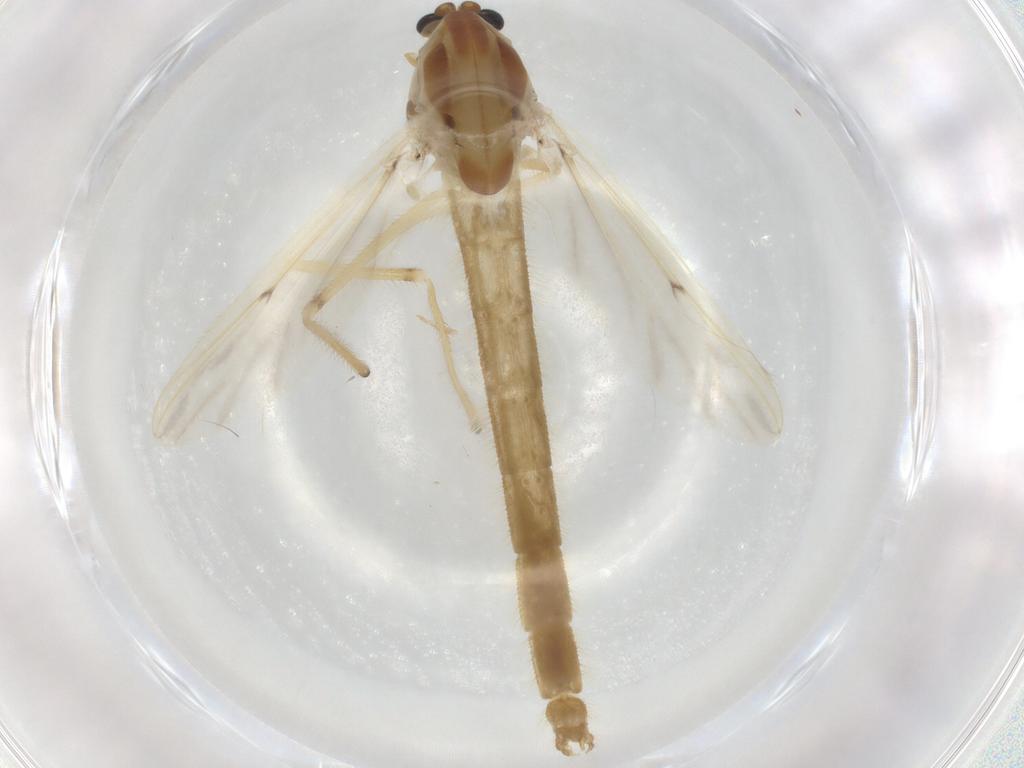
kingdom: Animalia
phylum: Arthropoda
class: Insecta
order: Diptera
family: Chironomidae
